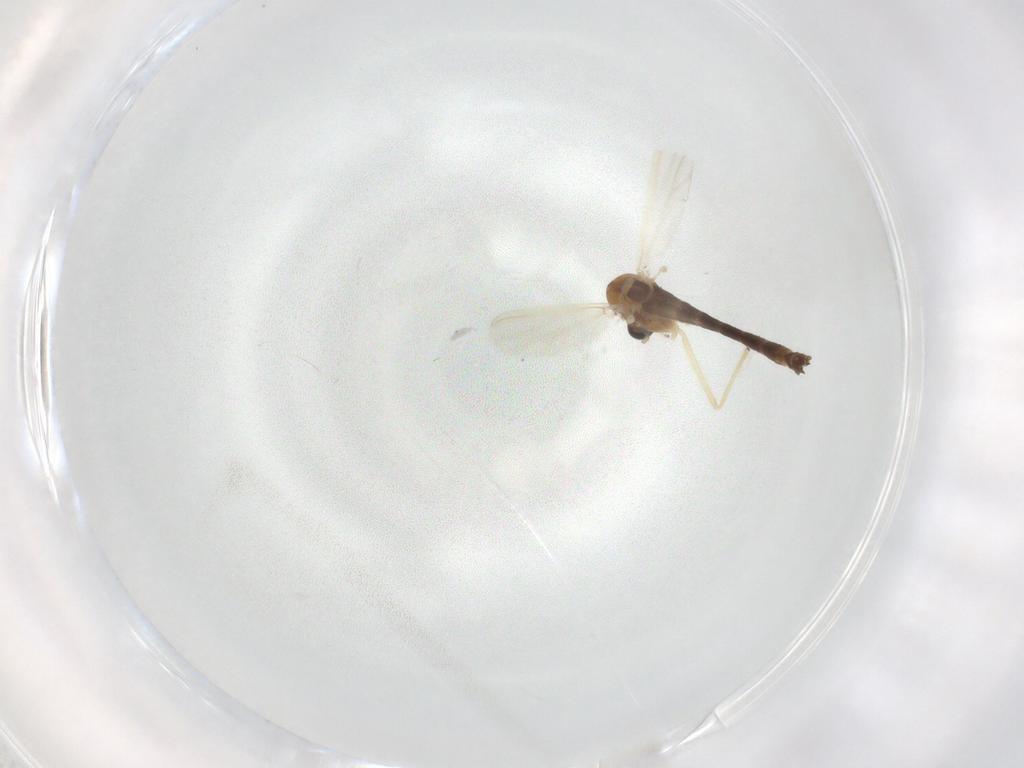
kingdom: Animalia
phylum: Arthropoda
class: Insecta
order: Diptera
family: Chironomidae
